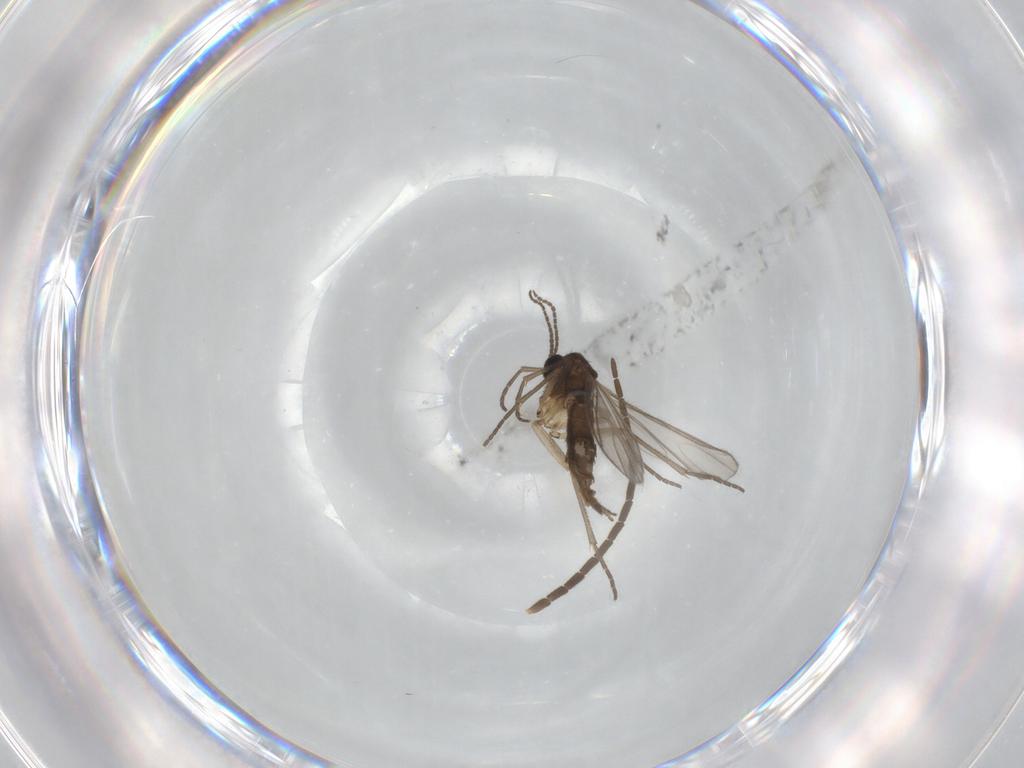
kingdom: Animalia
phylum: Arthropoda
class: Insecta
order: Diptera
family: Sciaridae
